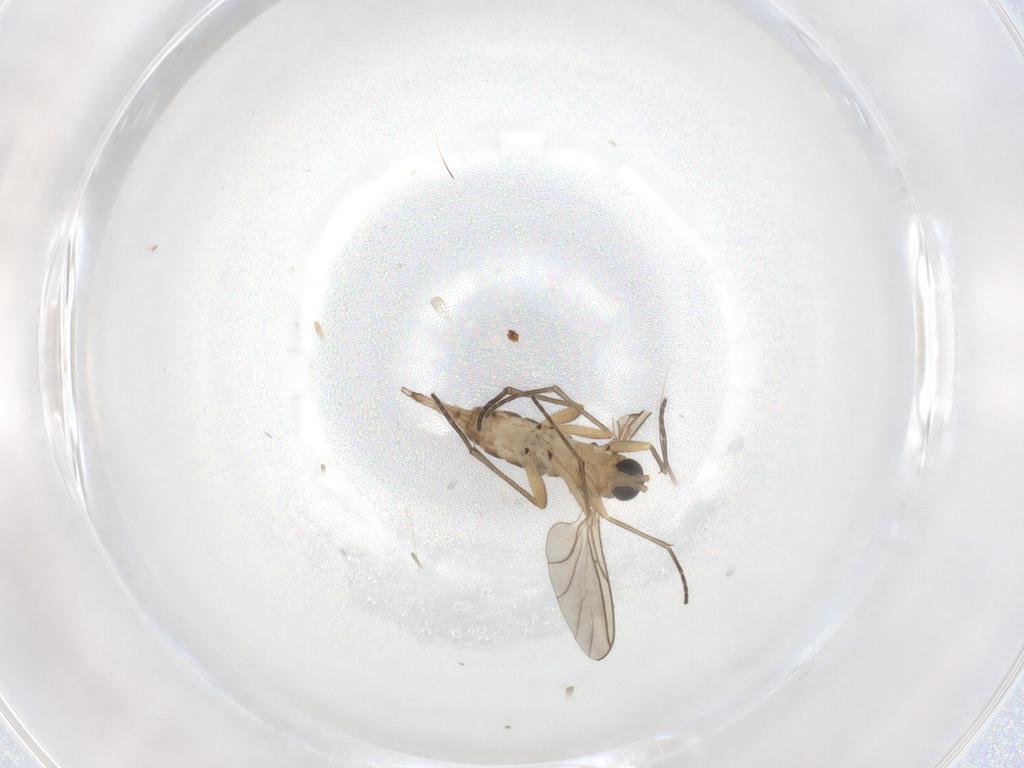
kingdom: Animalia
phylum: Arthropoda
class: Insecta
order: Diptera
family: Sciaridae
